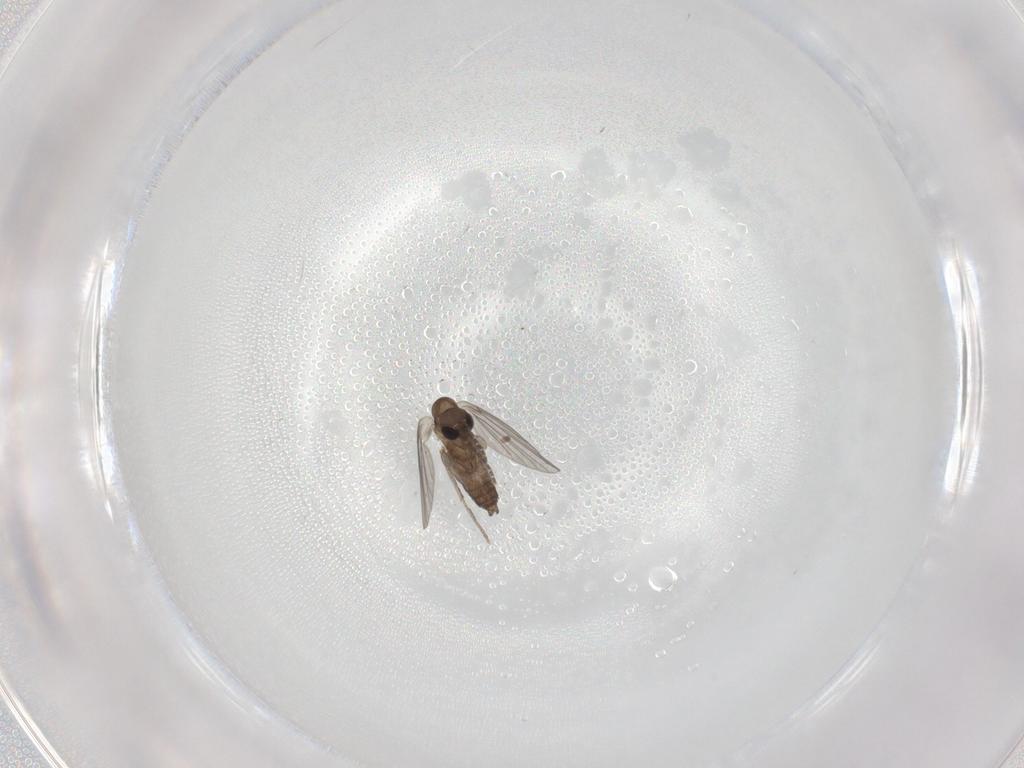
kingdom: Animalia
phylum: Arthropoda
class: Insecta
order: Diptera
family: Psychodidae
